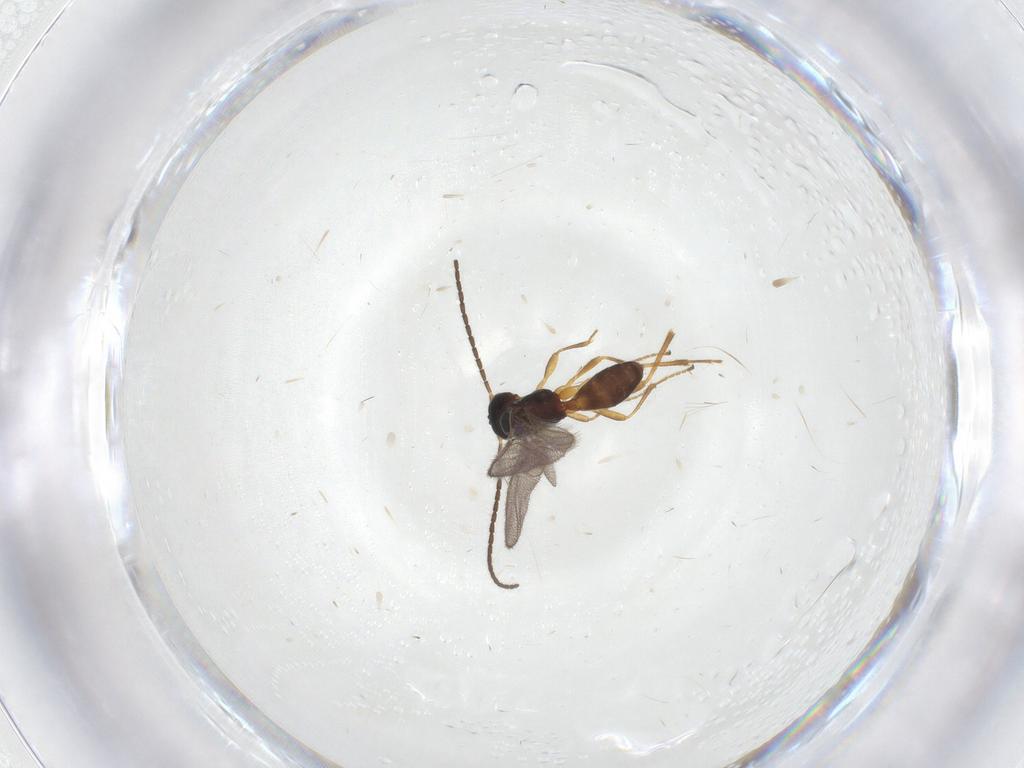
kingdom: Animalia
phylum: Arthropoda
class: Insecta
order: Hymenoptera
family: Braconidae
